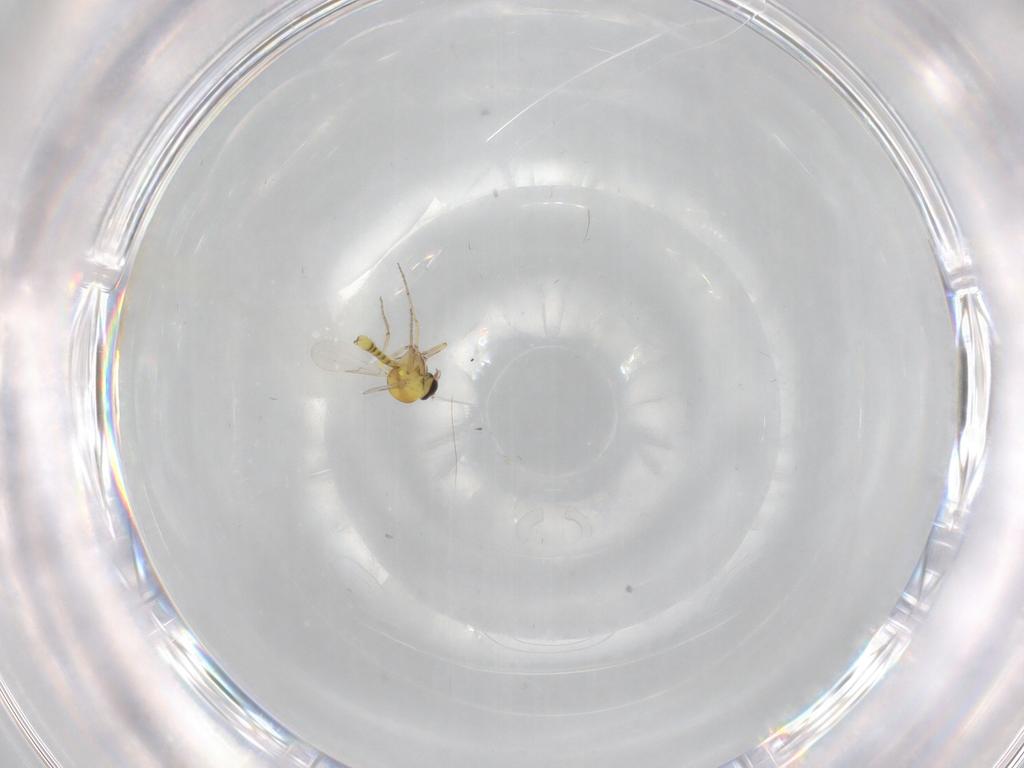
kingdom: Animalia
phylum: Arthropoda
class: Insecta
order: Diptera
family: Ceratopogonidae
